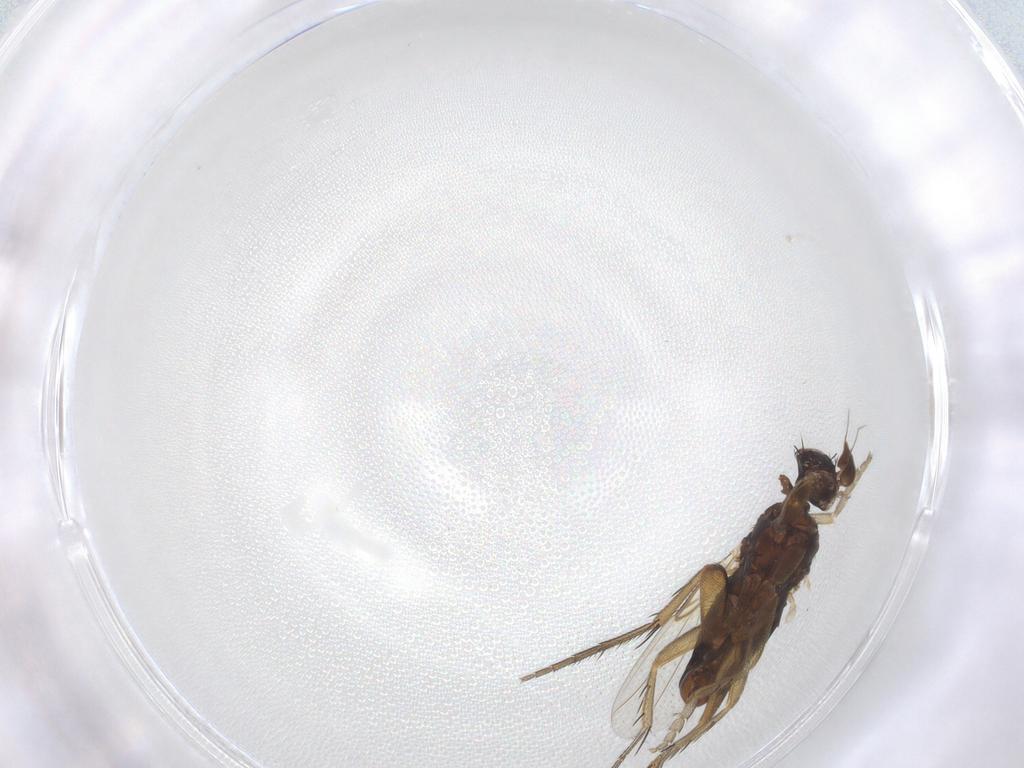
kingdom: Animalia
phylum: Arthropoda
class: Insecta
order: Diptera
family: Phoridae
